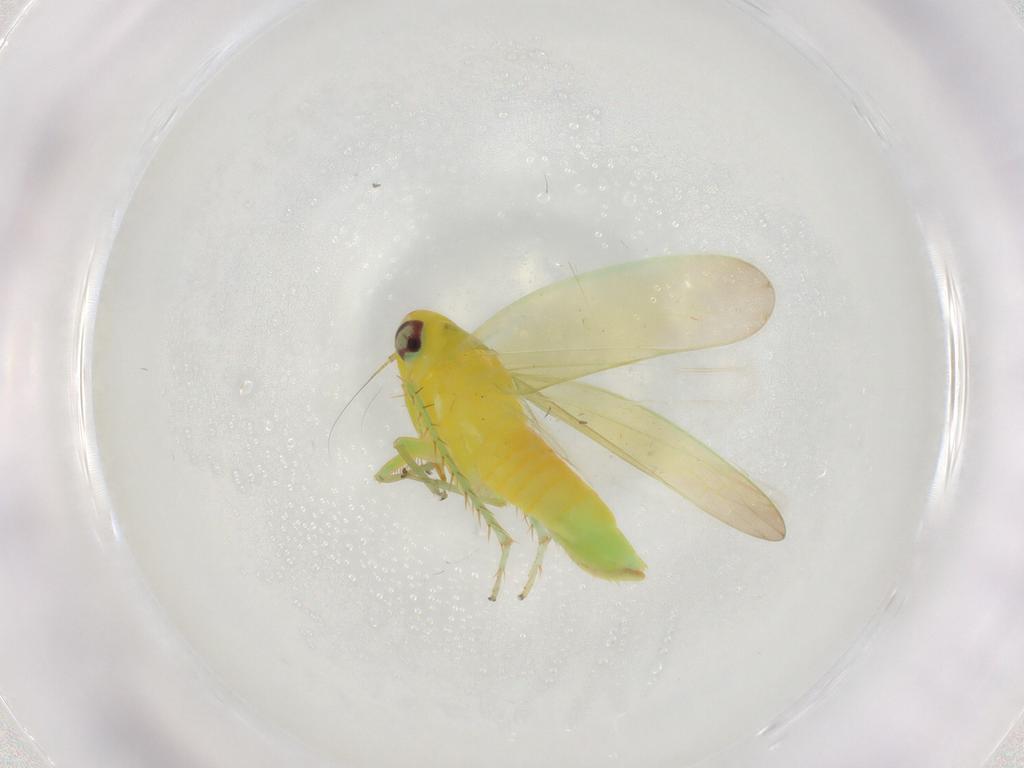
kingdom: Animalia
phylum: Arthropoda
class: Insecta
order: Hemiptera
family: Cicadellidae
